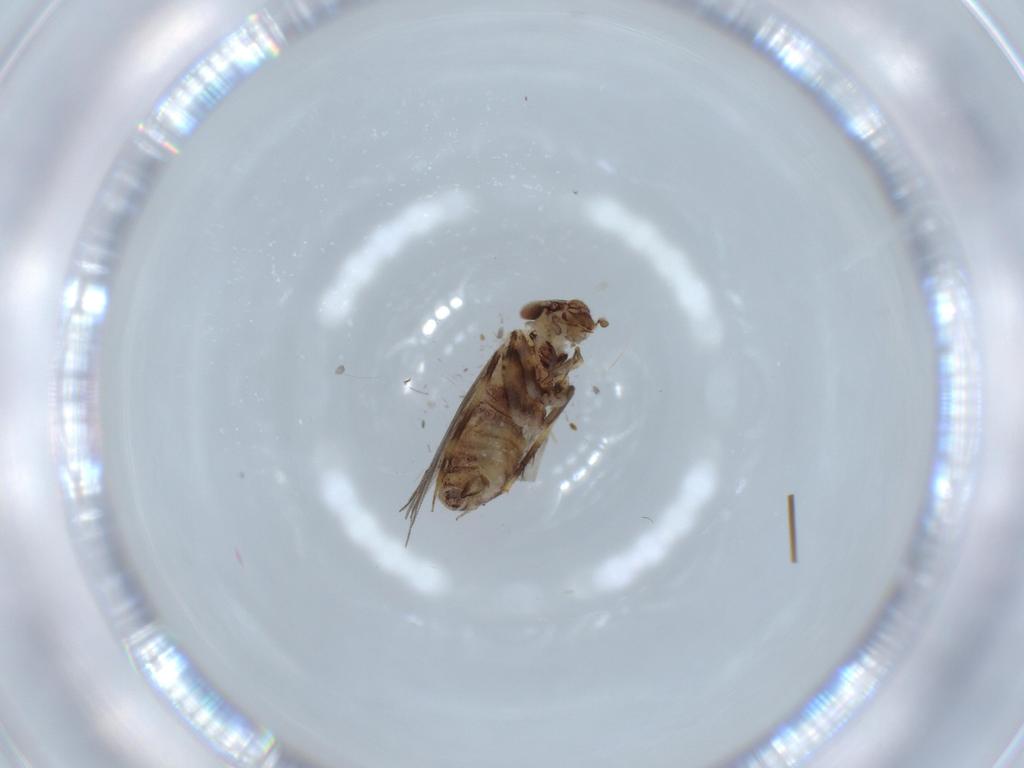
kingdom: Animalia
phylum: Arthropoda
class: Insecta
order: Psocodea
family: Lepidopsocidae
